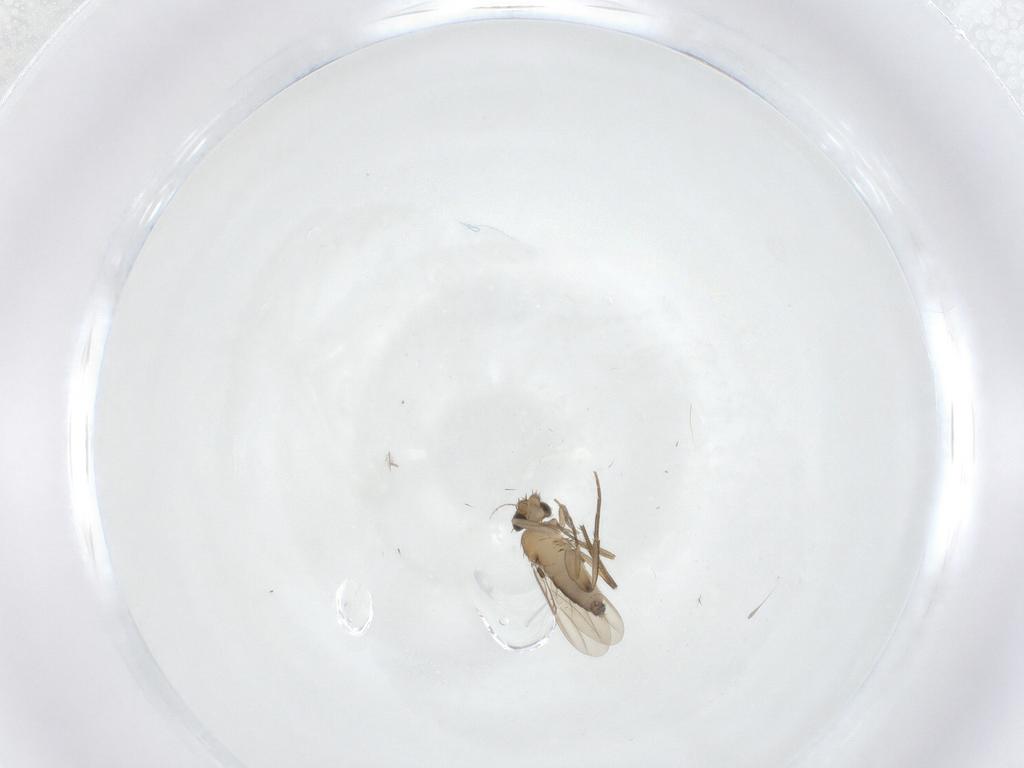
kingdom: Animalia
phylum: Arthropoda
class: Insecta
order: Diptera
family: Phoridae
